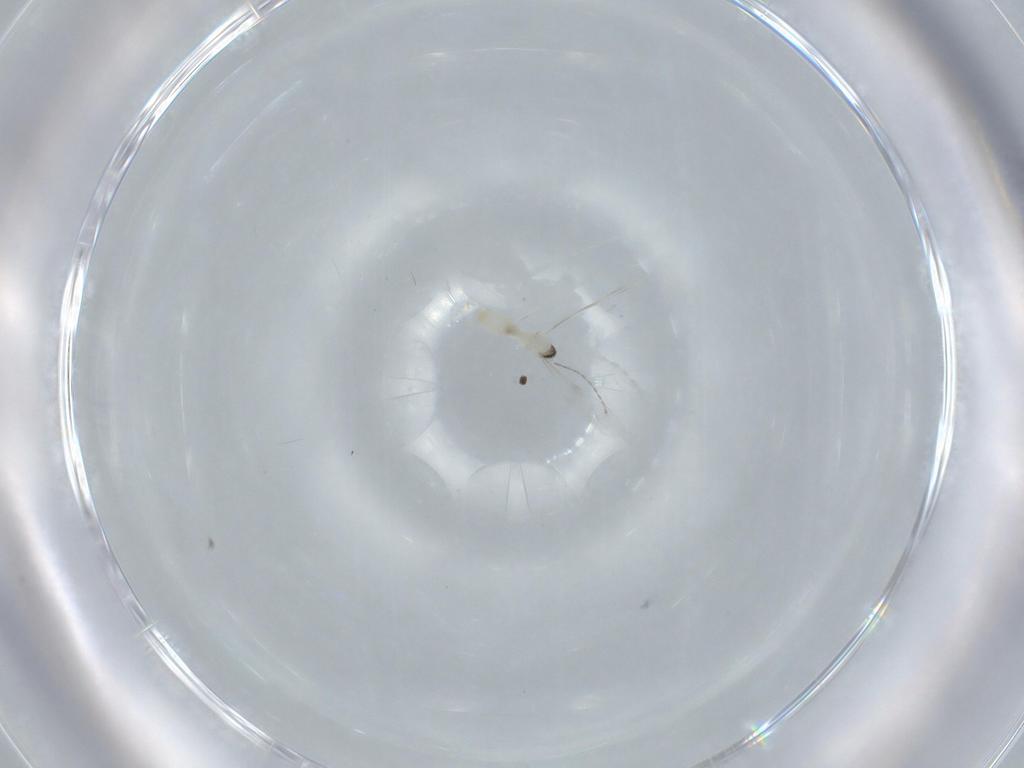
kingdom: Animalia
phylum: Arthropoda
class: Insecta
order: Diptera
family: Cecidomyiidae
